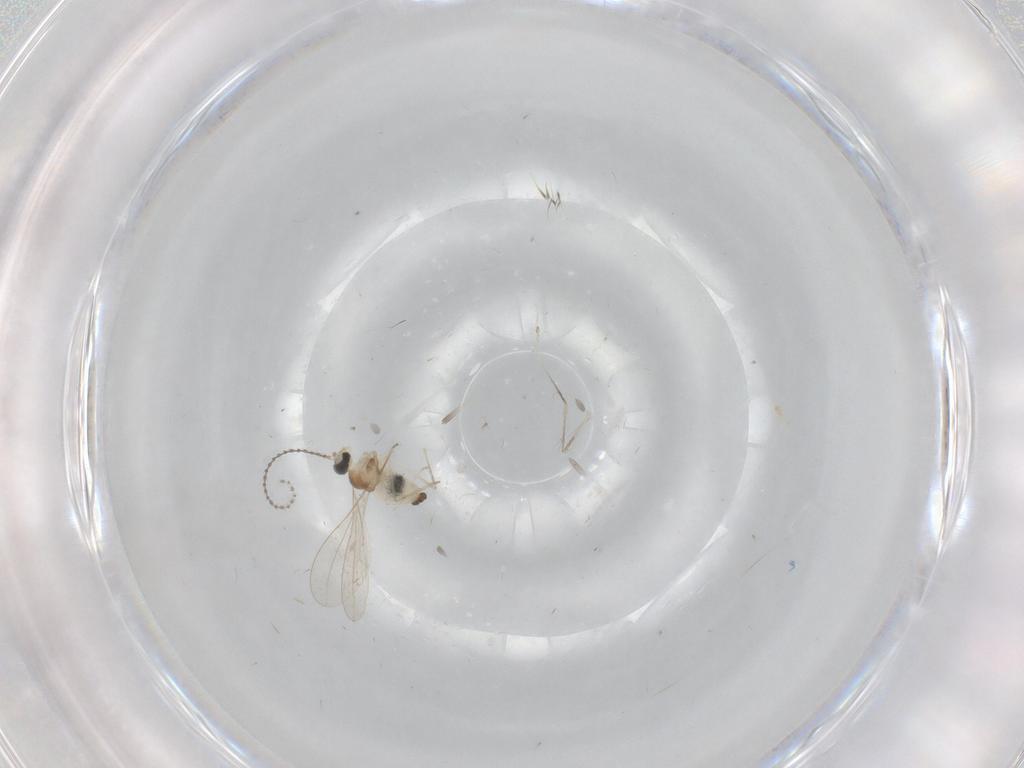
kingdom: Animalia
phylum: Arthropoda
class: Insecta
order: Diptera
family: Cecidomyiidae
